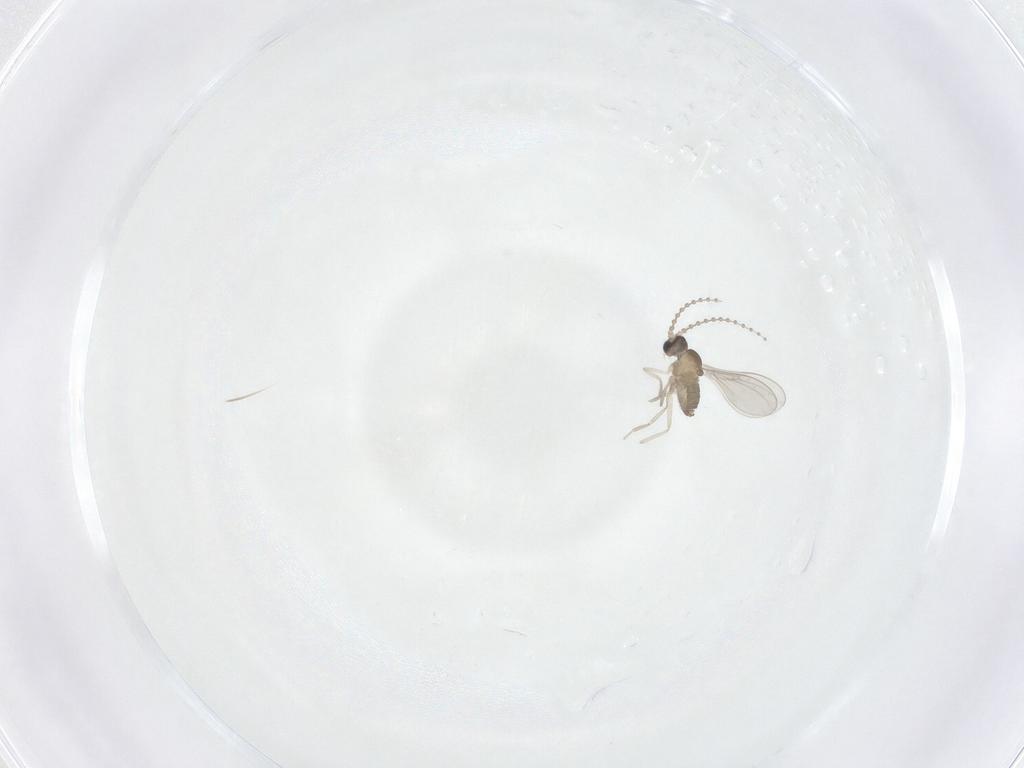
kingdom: Animalia
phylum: Arthropoda
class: Insecta
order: Diptera
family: Cecidomyiidae
